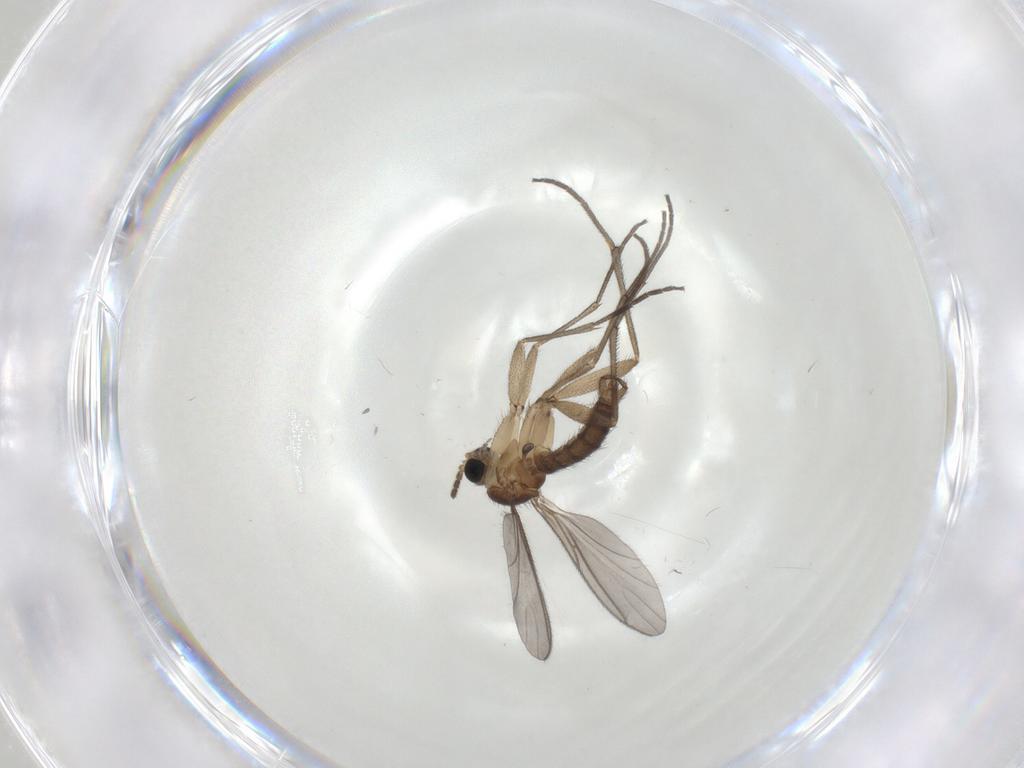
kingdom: Animalia
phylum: Arthropoda
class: Insecta
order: Diptera
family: Sciaridae
